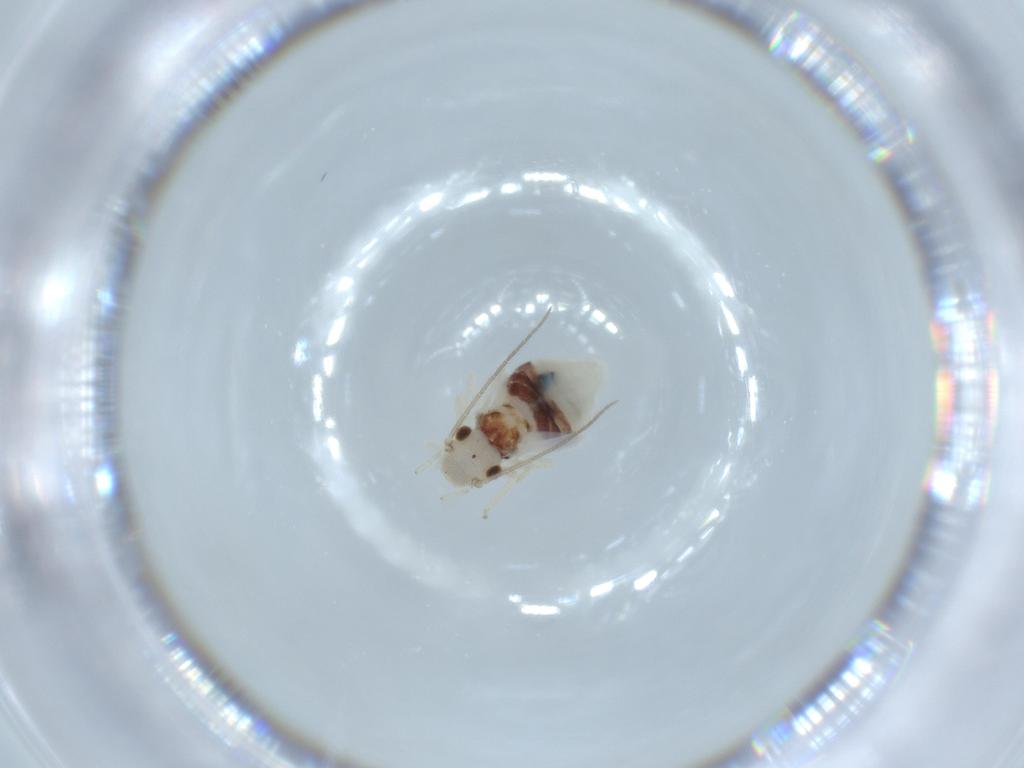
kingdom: Animalia
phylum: Arthropoda
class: Insecta
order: Psocodea
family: Caeciliusidae
